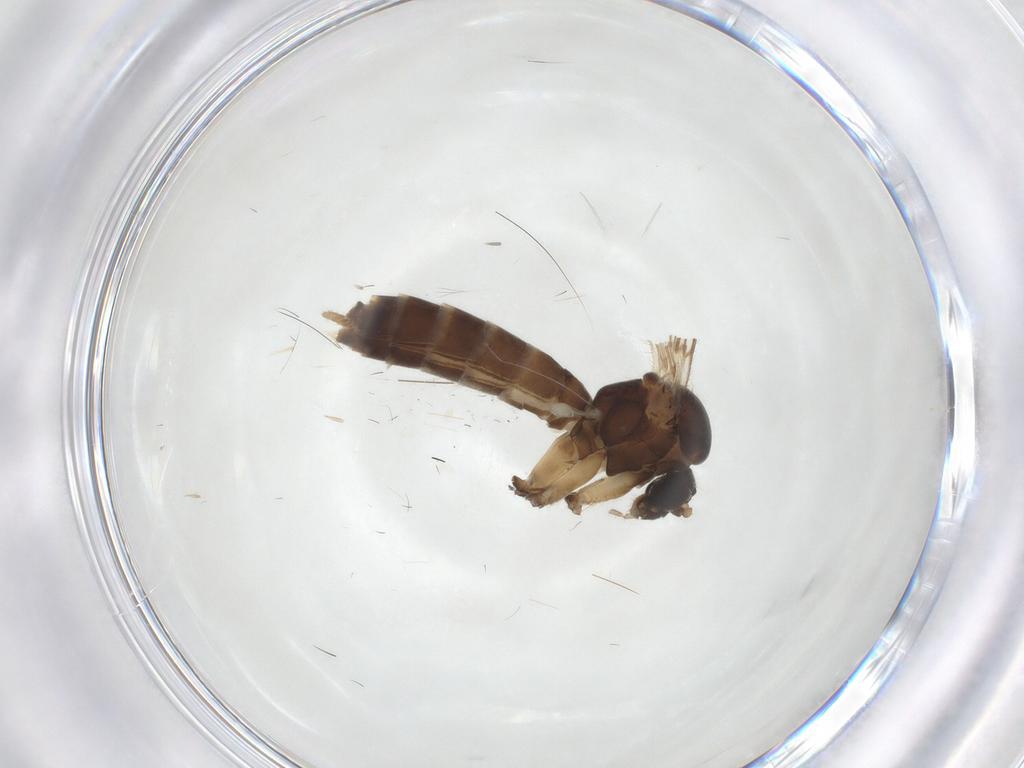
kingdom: Animalia
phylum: Arthropoda
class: Insecta
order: Diptera
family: Mycetophilidae
